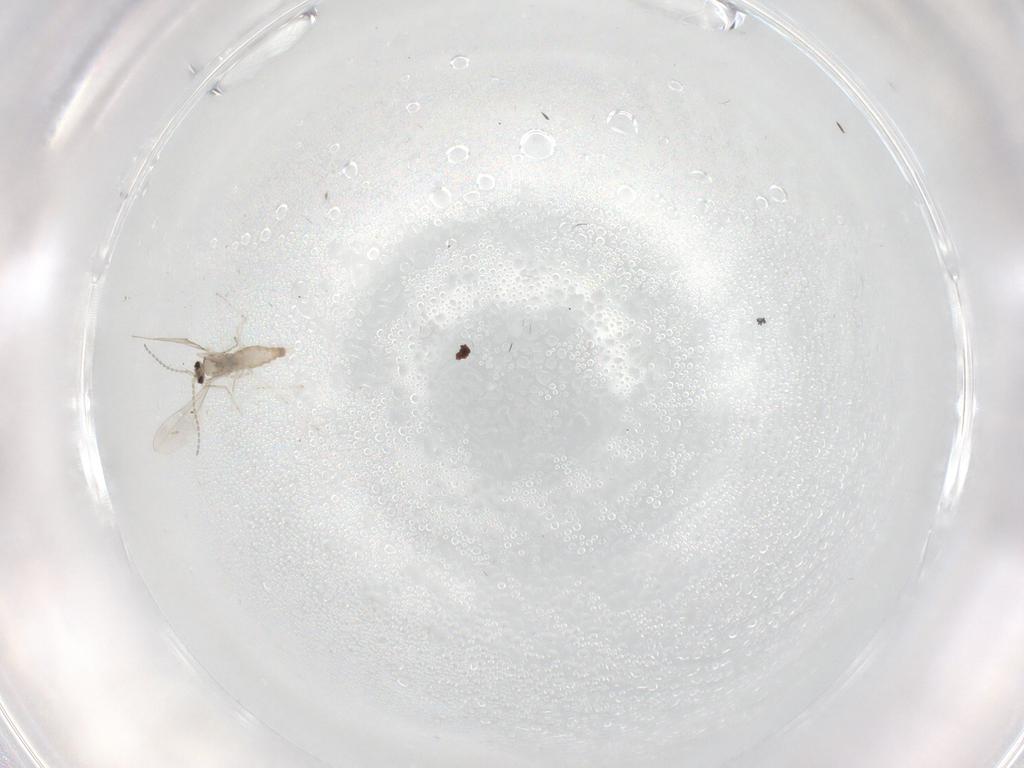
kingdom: Animalia
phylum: Arthropoda
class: Insecta
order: Diptera
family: Phoridae
